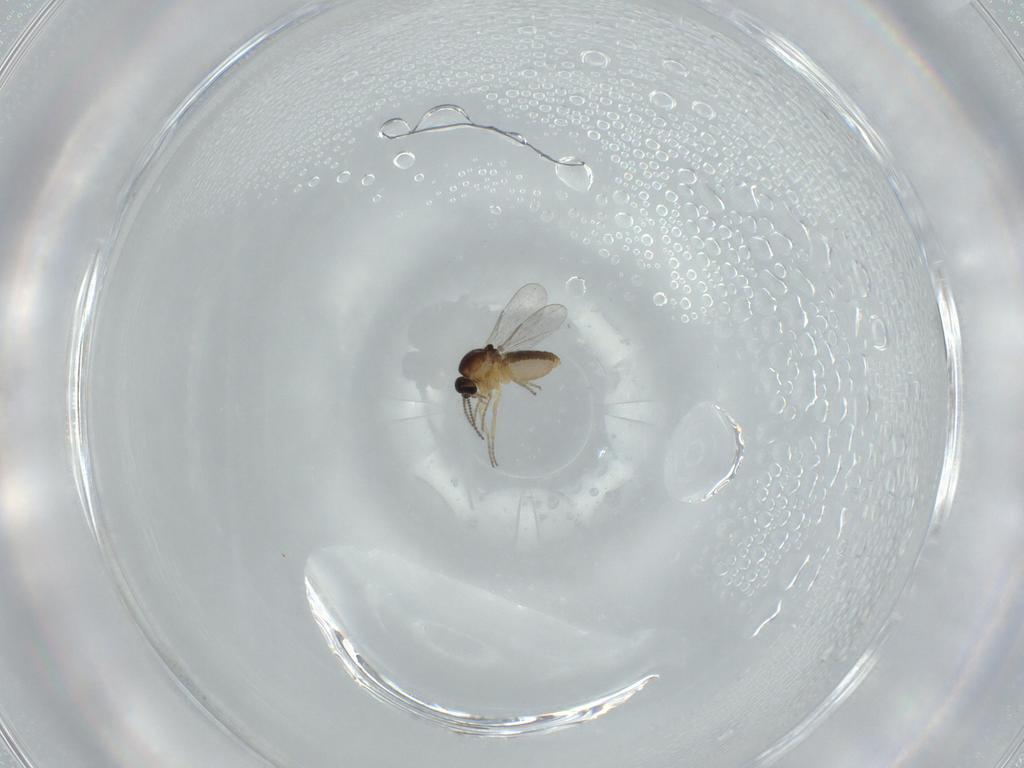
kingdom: Animalia
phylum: Arthropoda
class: Insecta
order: Diptera
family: Ceratopogonidae
